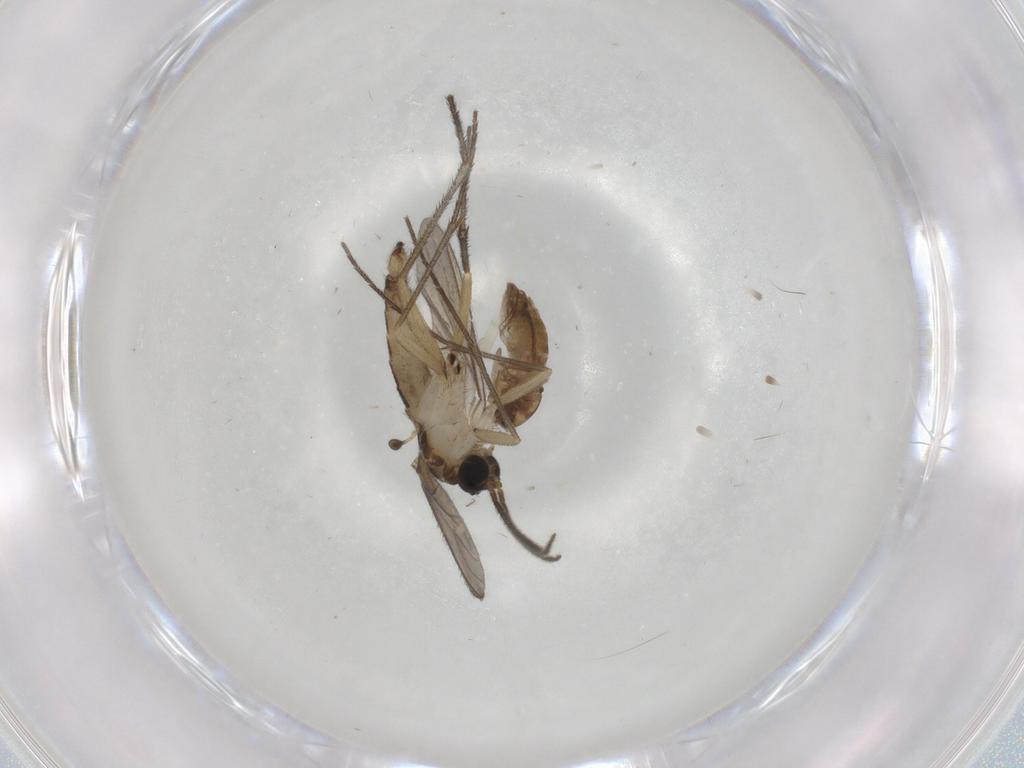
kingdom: Animalia
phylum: Arthropoda
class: Insecta
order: Diptera
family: Sciaridae
